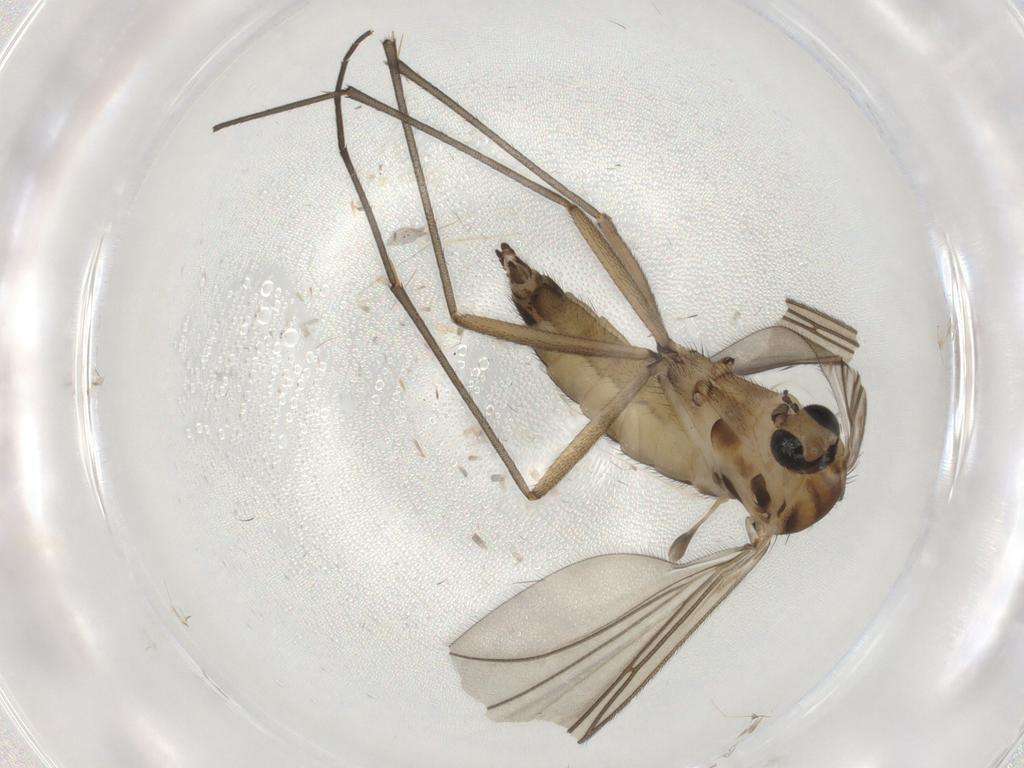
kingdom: Animalia
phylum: Arthropoda
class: Insecta
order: Diptera
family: Sciaridae
